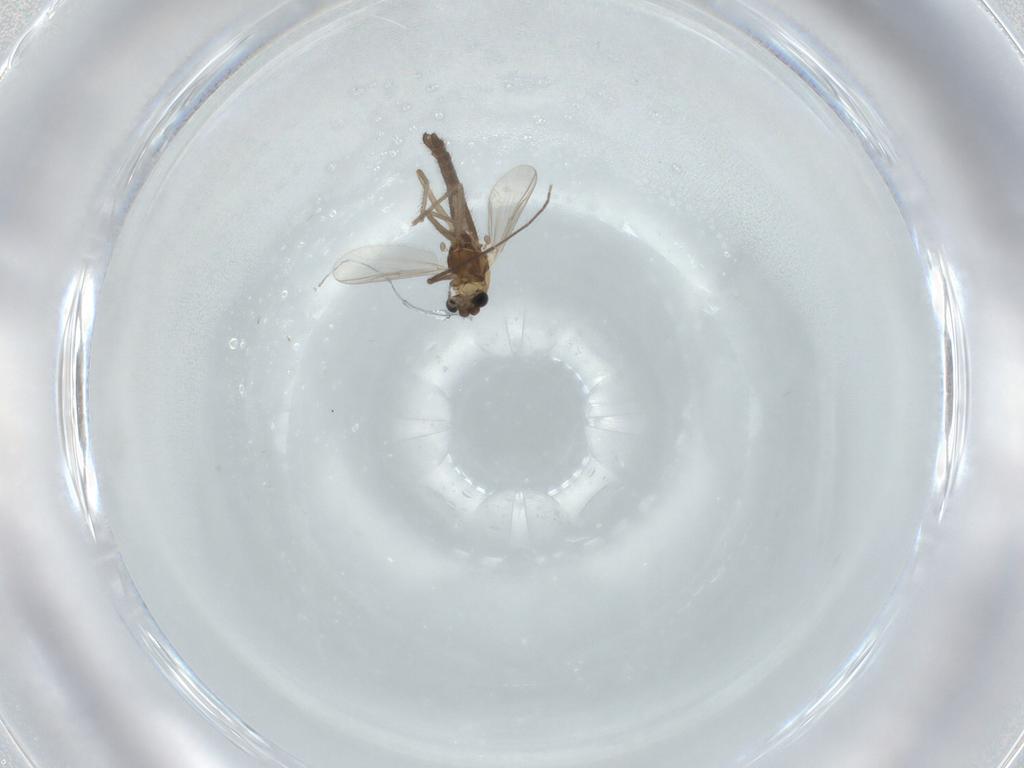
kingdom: Animalia
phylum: Arthropoda
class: Insecta
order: Diptera
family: Chironomidae
